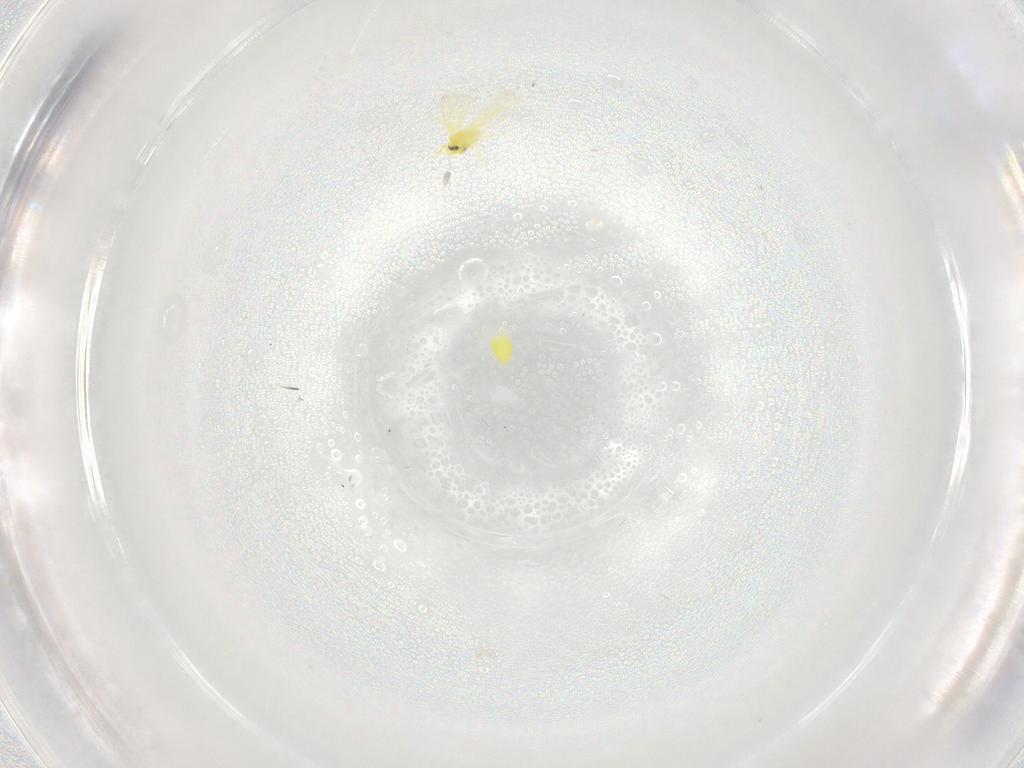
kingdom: Animalia
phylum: Arthropoda
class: Insecta
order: Hemiptera
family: Aleyrodidae
